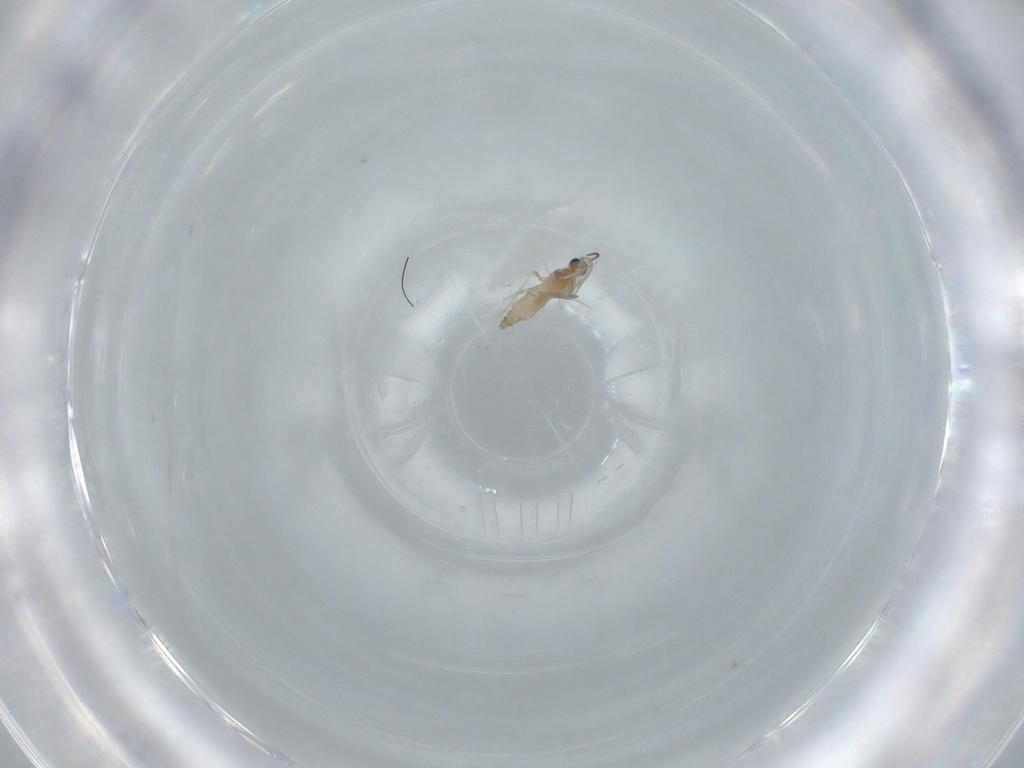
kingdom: Animalia
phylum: Arthropoda
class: Insecta
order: Diptera
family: Cecidomyiidae
